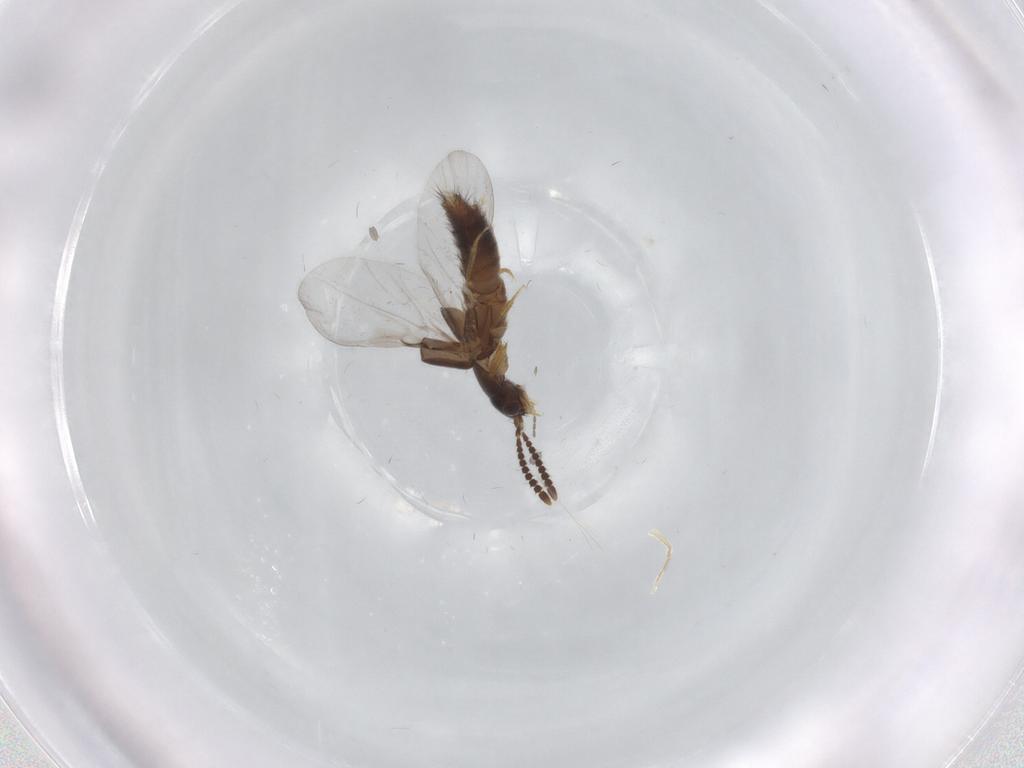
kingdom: Animalia
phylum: Arthropoda
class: Insecta
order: Coleoptera
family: Staphylinidae
